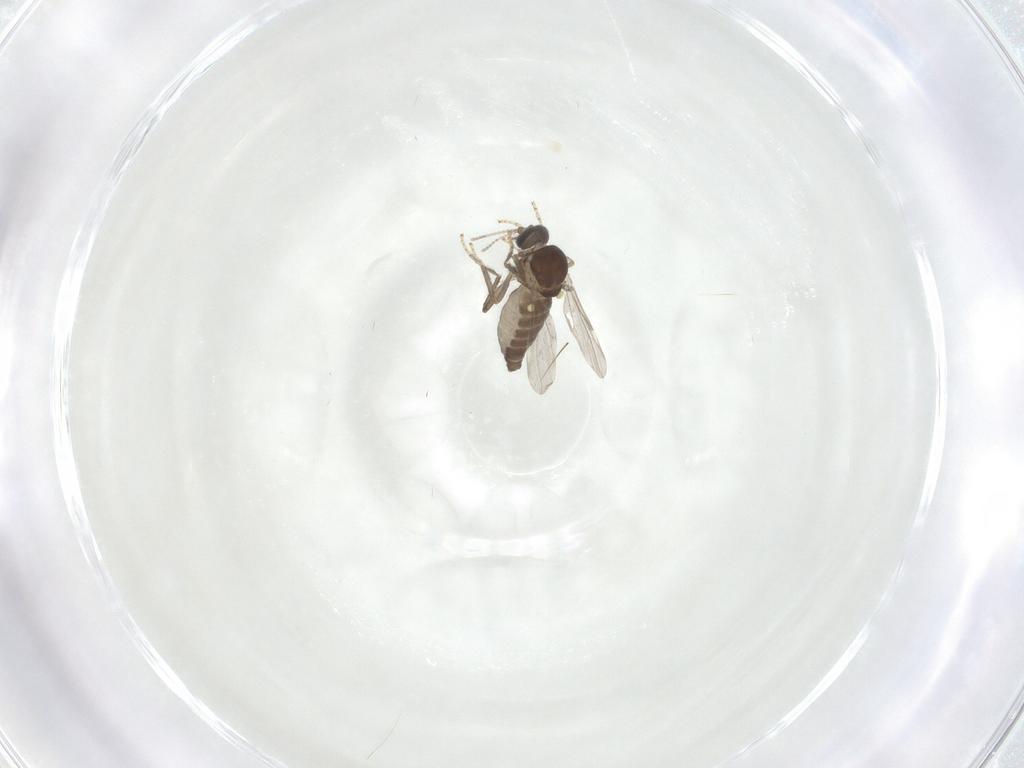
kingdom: Animalia
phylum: Arthropoda
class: Insecta
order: Diptera
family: Ceratopogonidae
